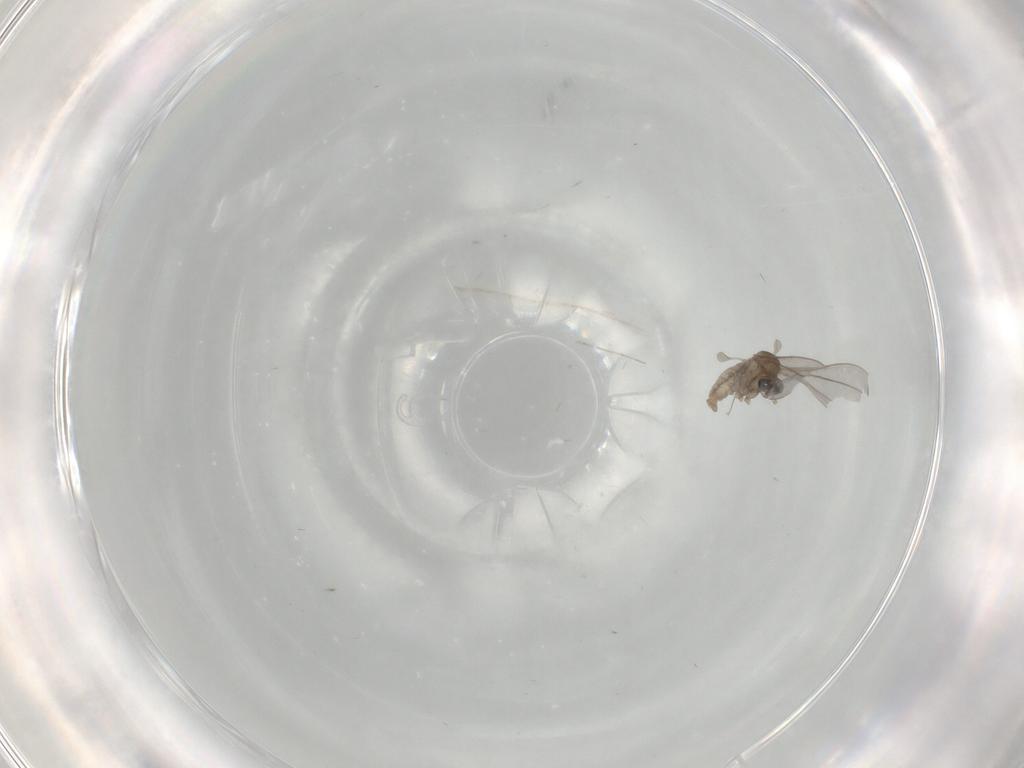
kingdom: Animalia
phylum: Arthropoda
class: Insecta
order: Diptera
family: Cecidomyiidae
